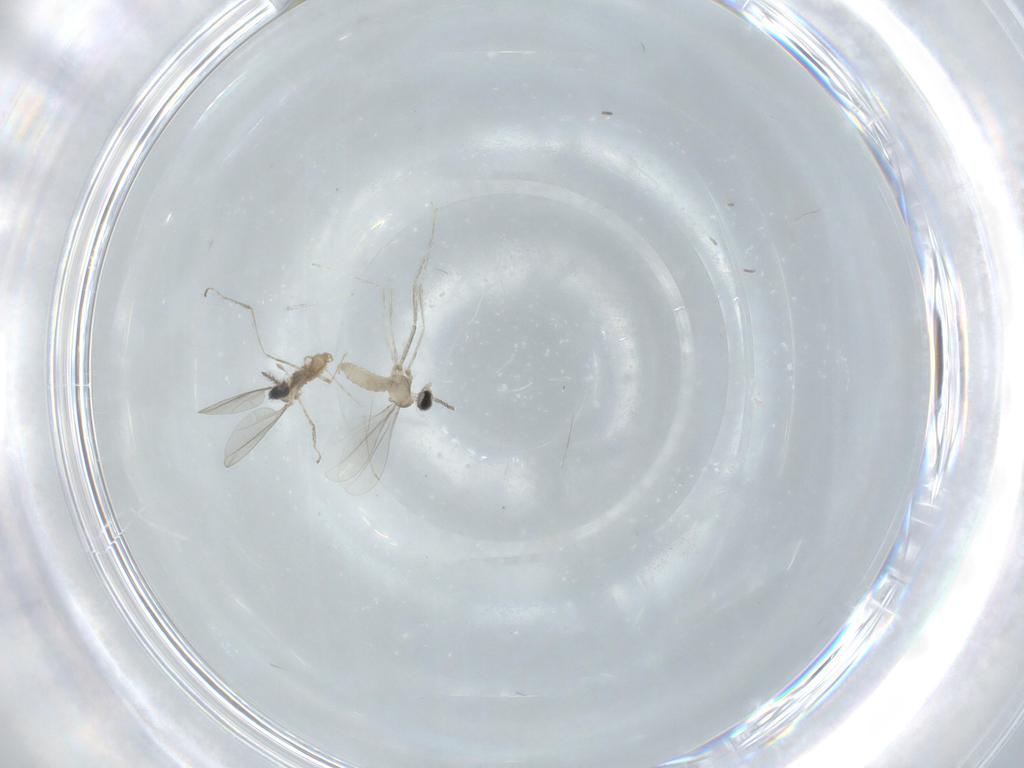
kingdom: Animalia
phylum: Arthropoda
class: Insecta
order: Diptera
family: Cecidomyiidae
